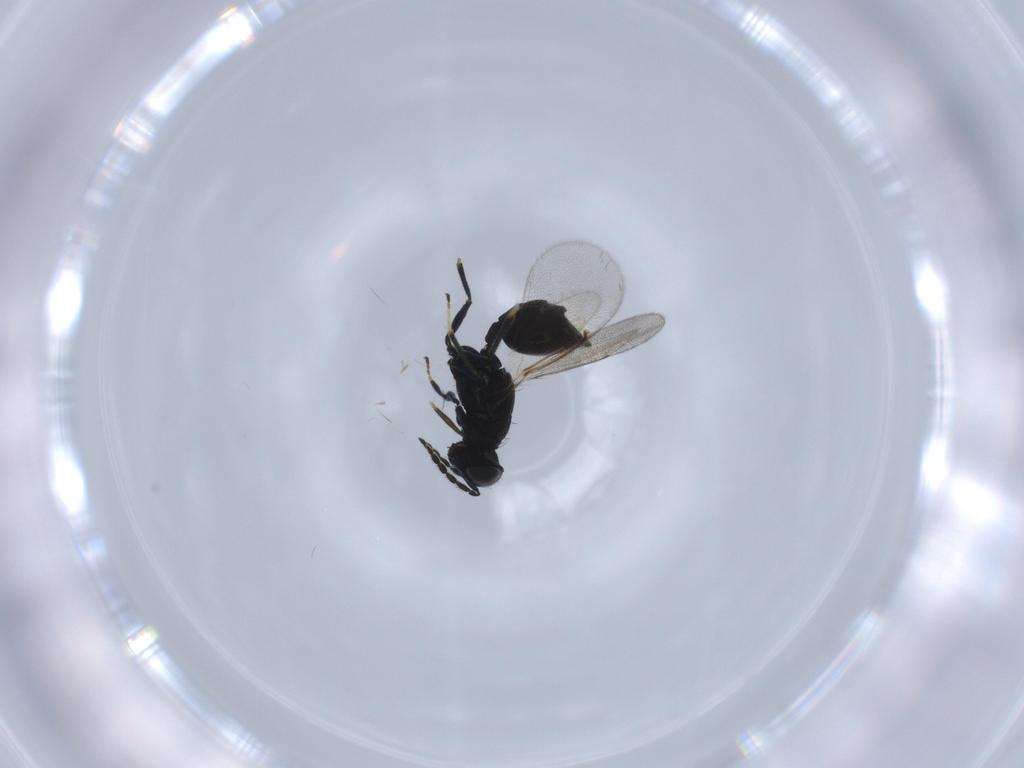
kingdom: Animalia
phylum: Arthropoda
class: Insecta
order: Hymenoptera
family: Eulophidae
